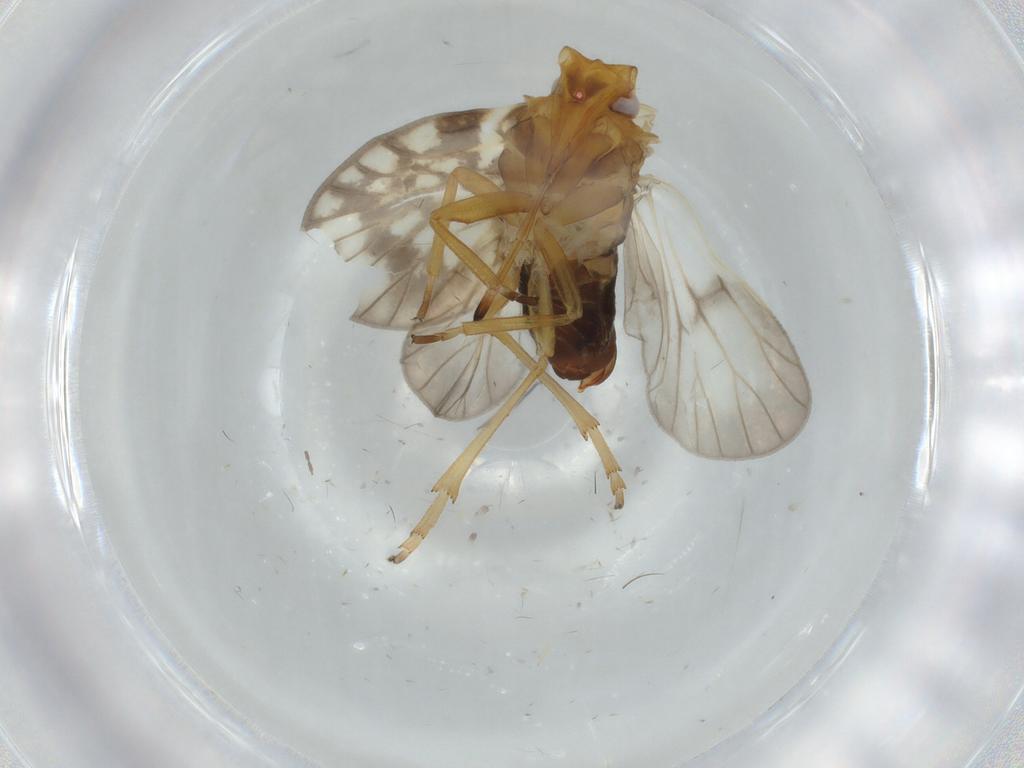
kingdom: Animalia
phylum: Arthropoda
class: Insecta
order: Hemiptera
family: Cixiidae
